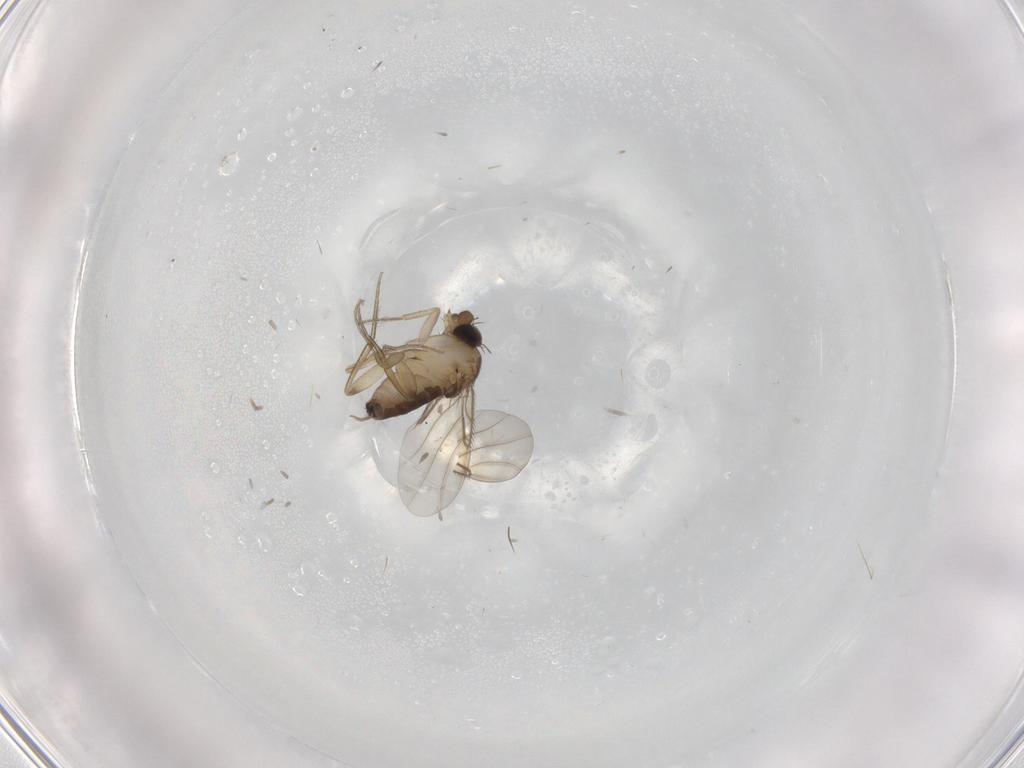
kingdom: Animalia
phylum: Arthropoda
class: Insecta
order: Diptera
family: Phoridae
